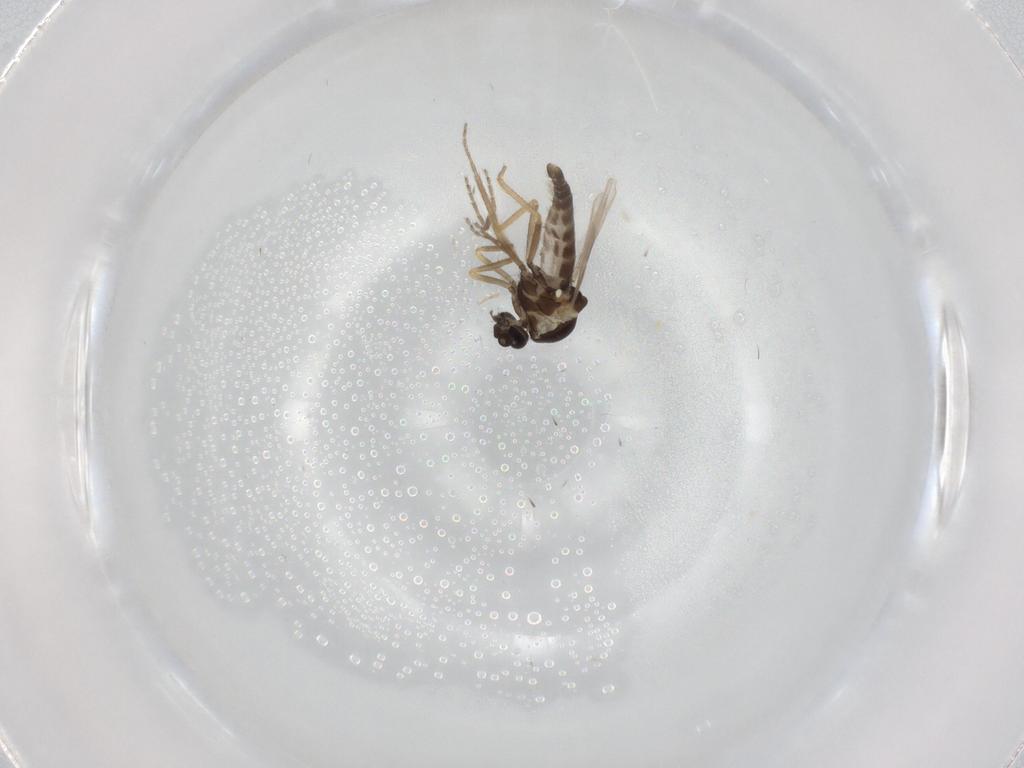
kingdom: Animalia
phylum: Arthropoda
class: Insecta
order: Diptera
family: Ceratopogonidae
